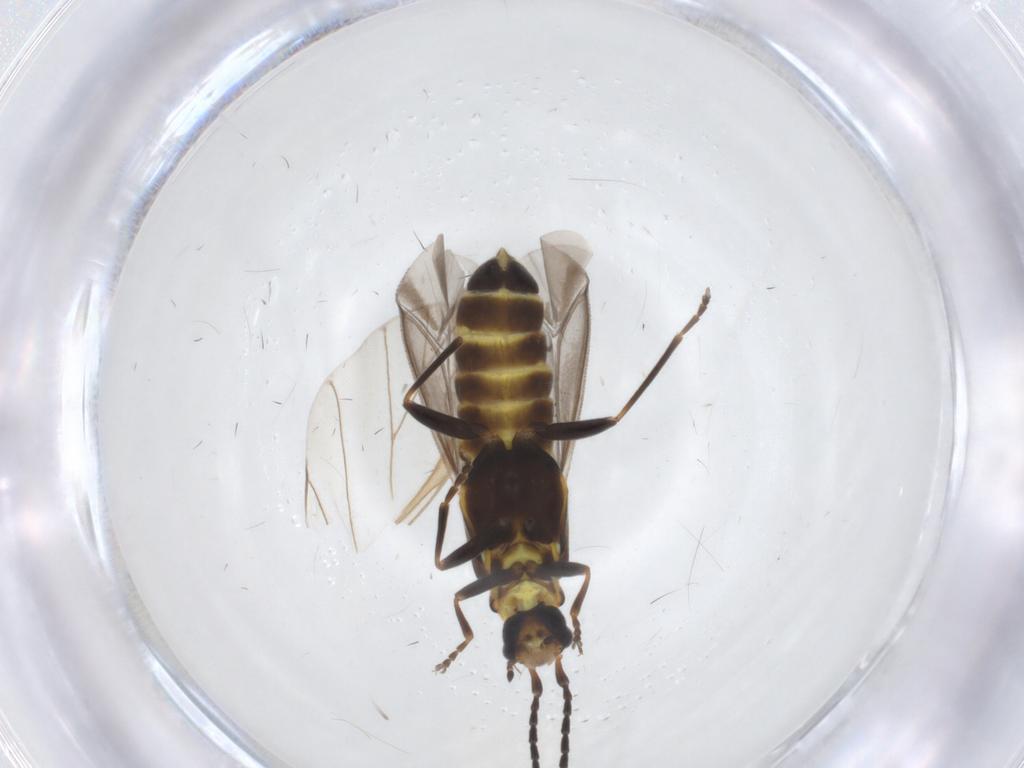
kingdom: Animalia
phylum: Arthropoda
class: Insecta
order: Coleoptera
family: Cantharidae
